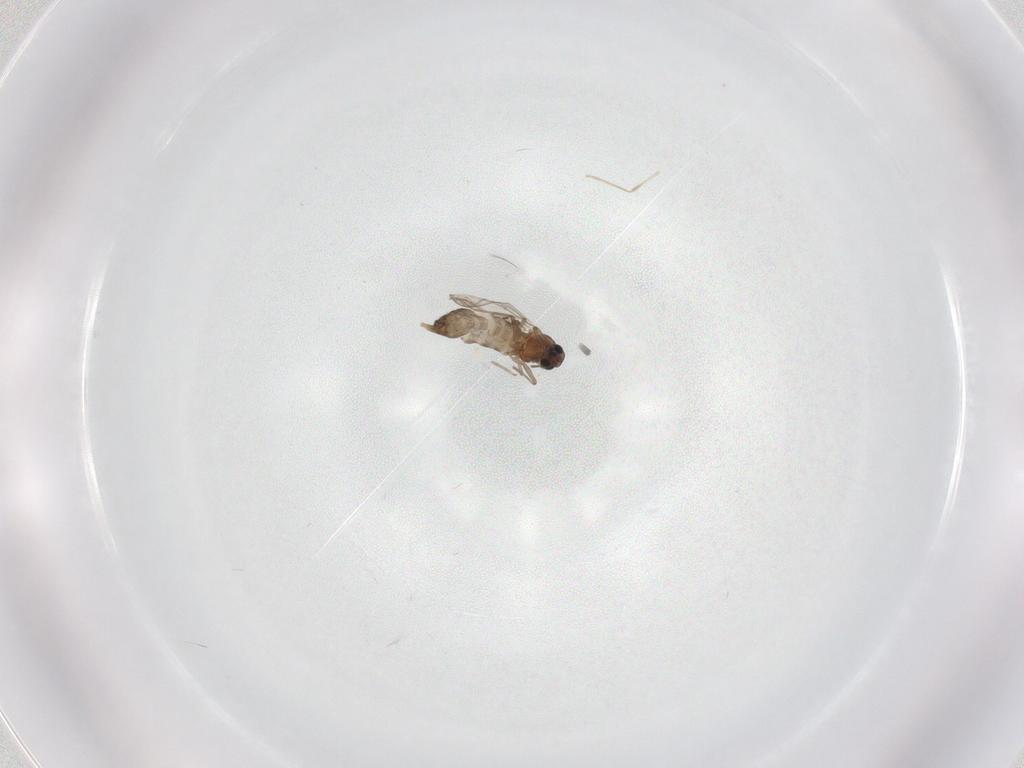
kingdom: Animalia
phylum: Arthropoda
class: Insecta
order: Diptera
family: Chironomidae
